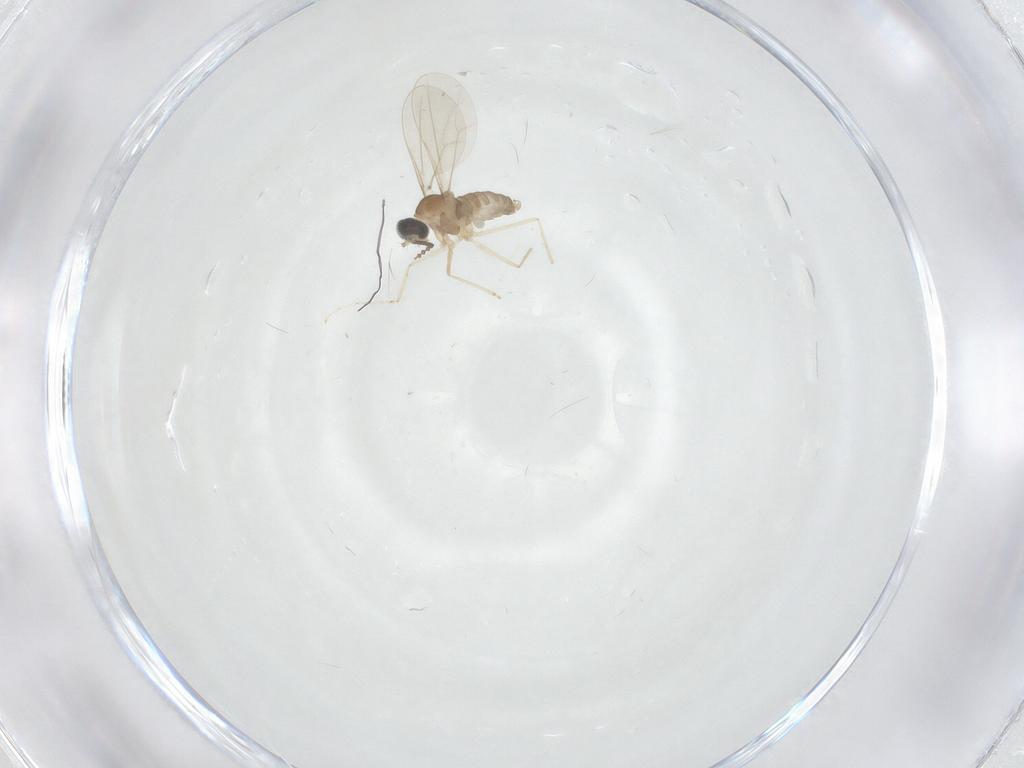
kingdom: Animalia
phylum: Arthropoda
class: Insecta
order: Diptera
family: Cecidomyiidae
